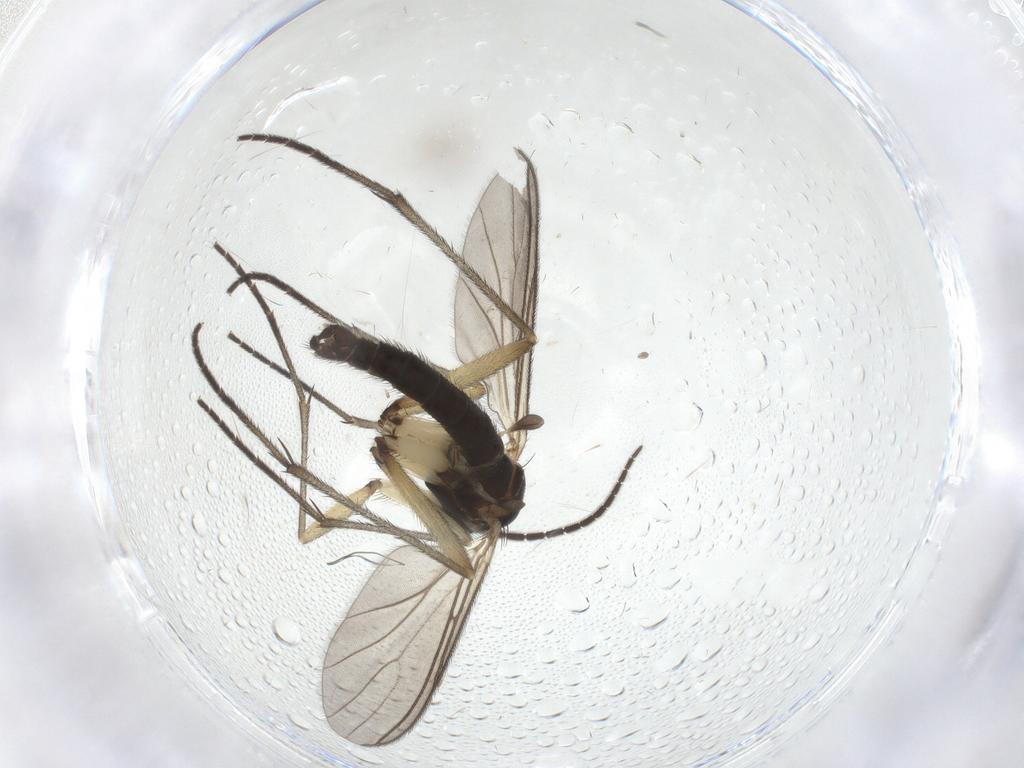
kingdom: Animalia
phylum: Arthropoda
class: Insecta
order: Diptera
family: Sciaridae
